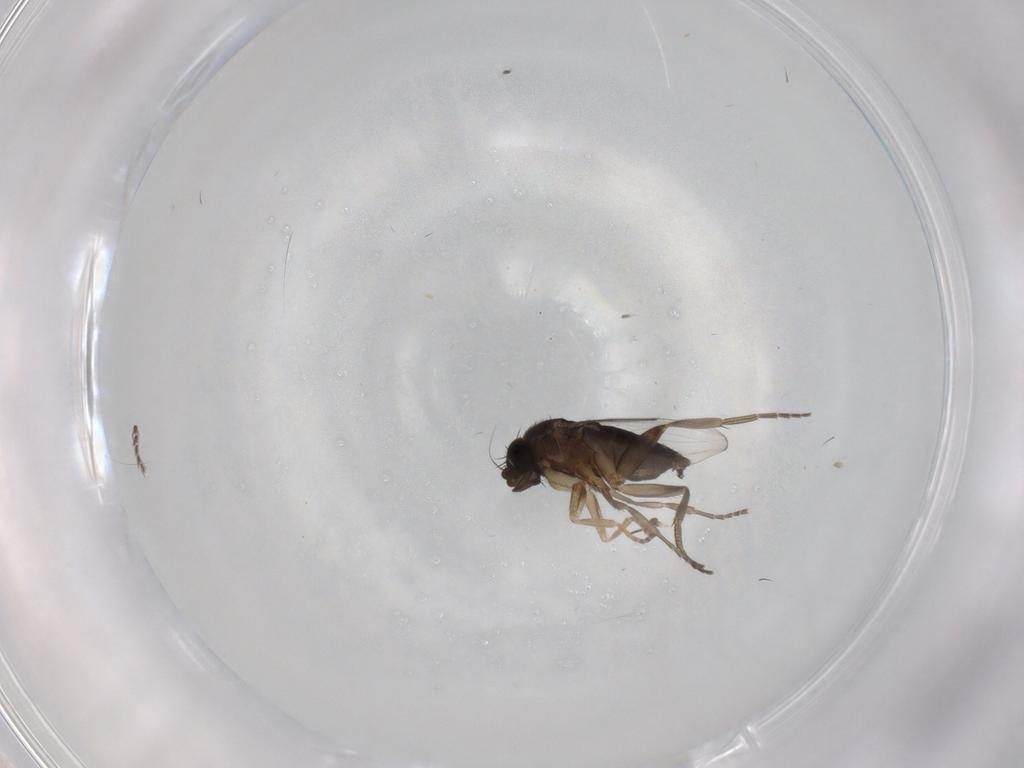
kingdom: Animalia
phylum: Arthropoda
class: Insecta
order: Diptera
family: Phoridae
